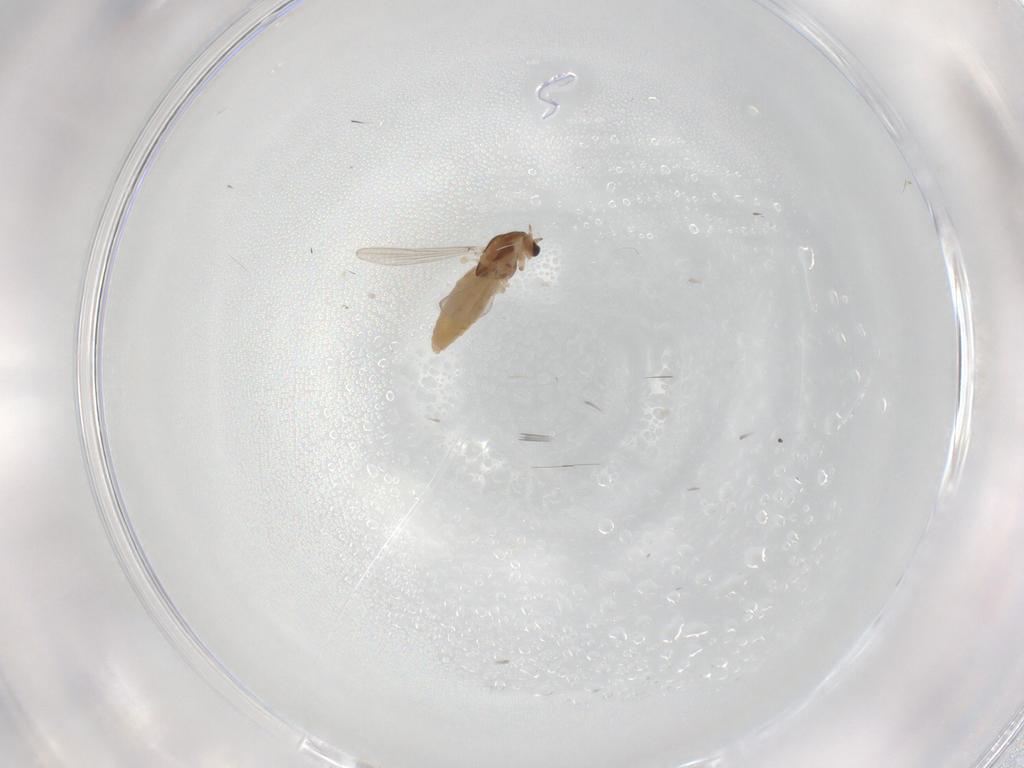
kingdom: Animalia
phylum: Arthropoda
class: Insecta
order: Diptera
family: Chironomidae
